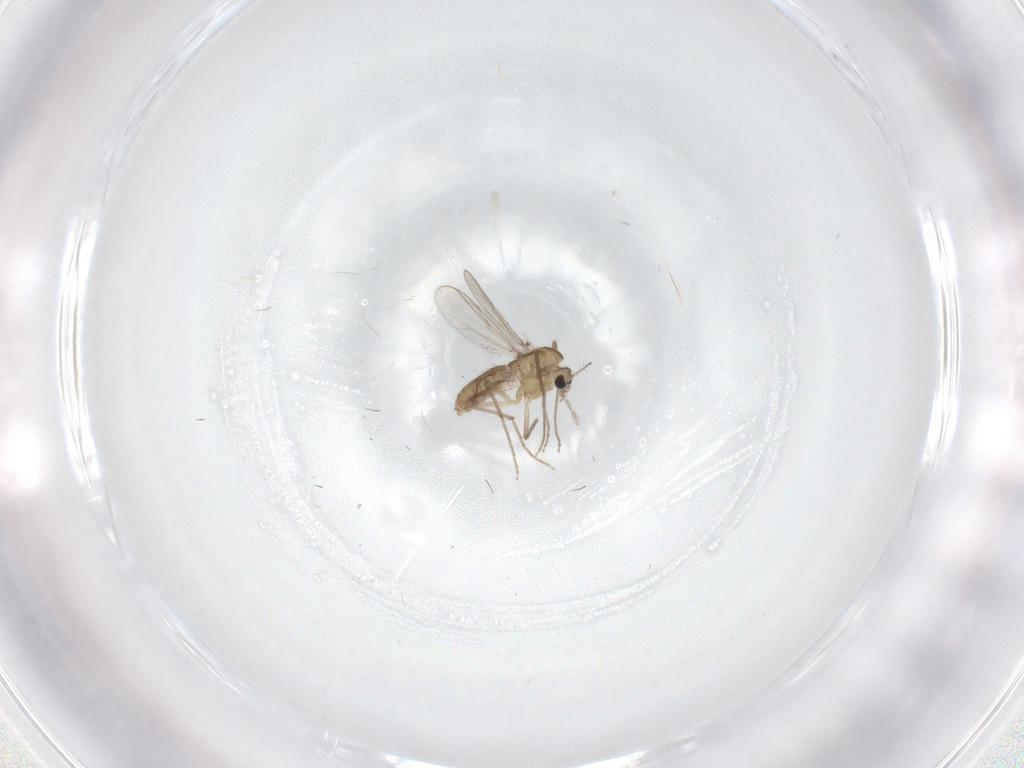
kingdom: Animalia
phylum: Arthropoda
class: Insecta
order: Diptera
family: Chironomidae
